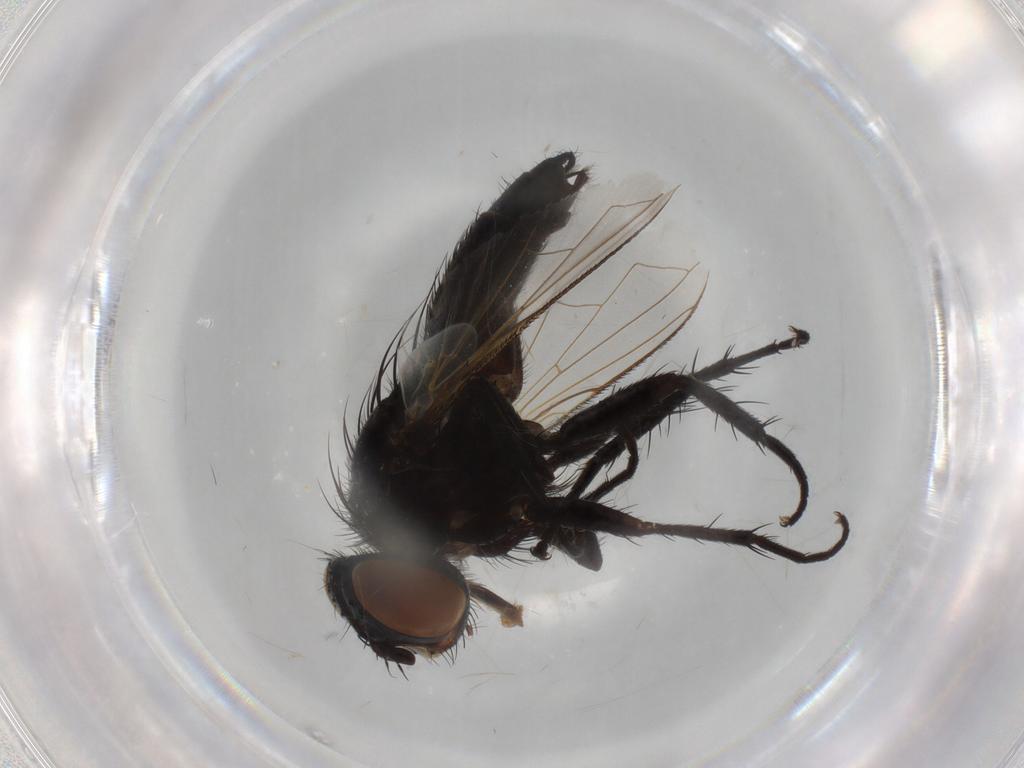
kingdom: Animalia
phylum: Arthropoda
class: Insecta
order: Diptera
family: Tachinidae
